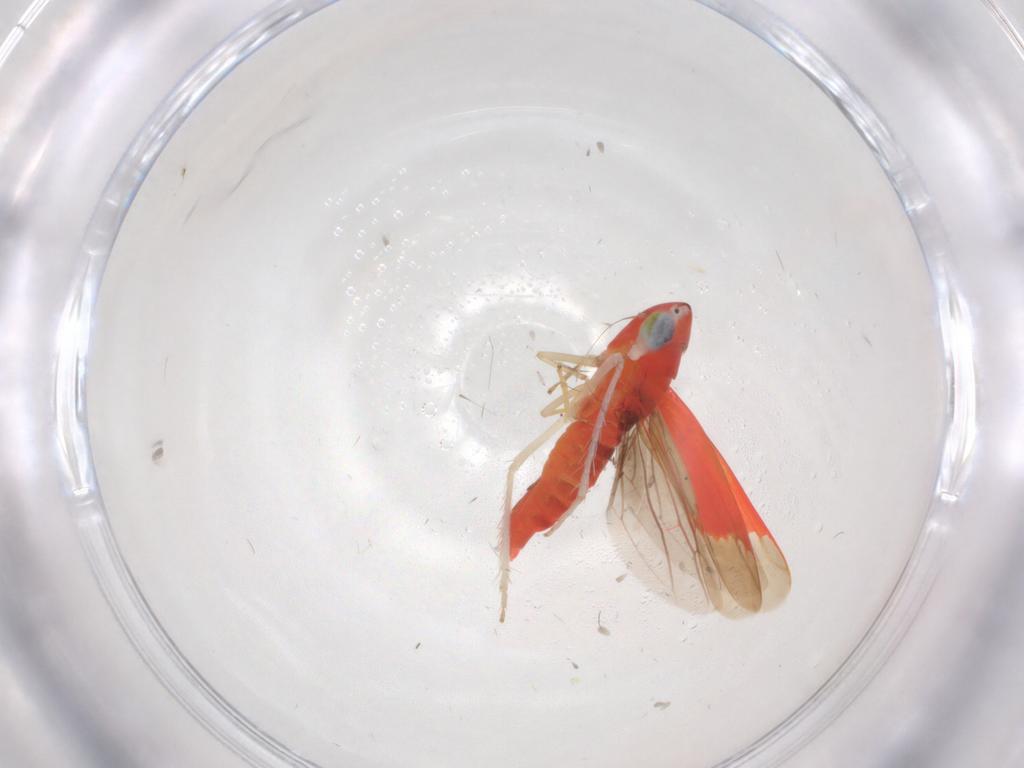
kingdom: Animalia
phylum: Arthropoda
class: Insecta
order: Hemiptera
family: Cicadellidae
